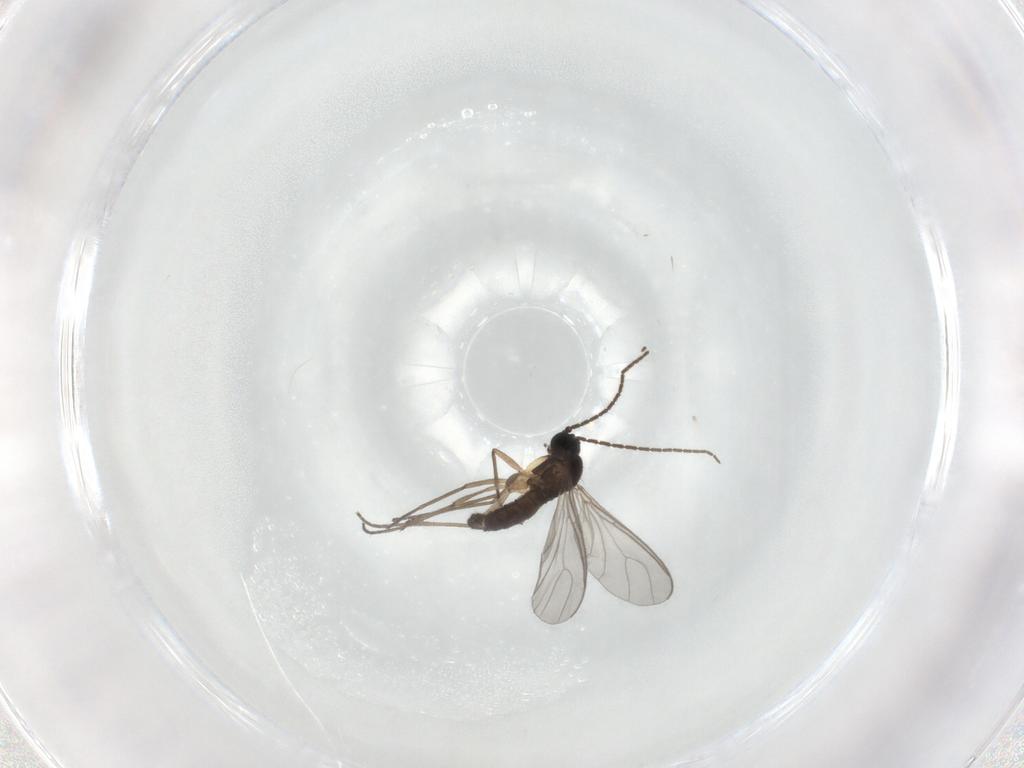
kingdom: Animalia
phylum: Arthropoda
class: Insecta
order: Diptera
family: Sciaridae
